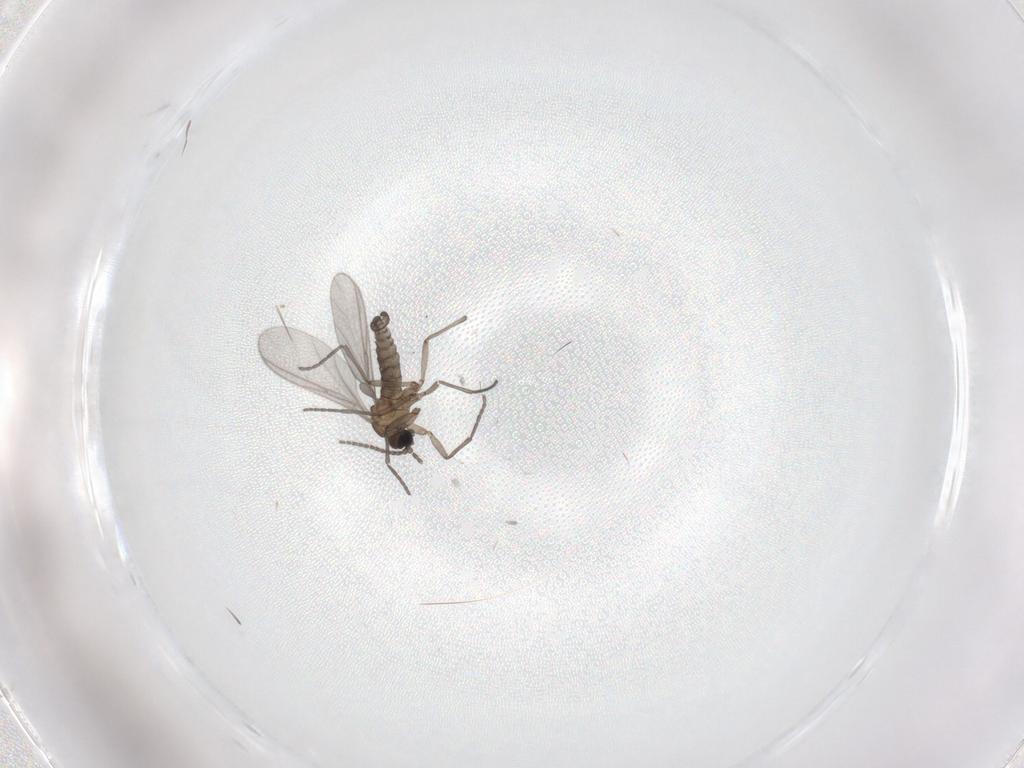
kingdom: Animalia
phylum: Arthropoda
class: Insecta
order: Diptera
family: Sciaridae
